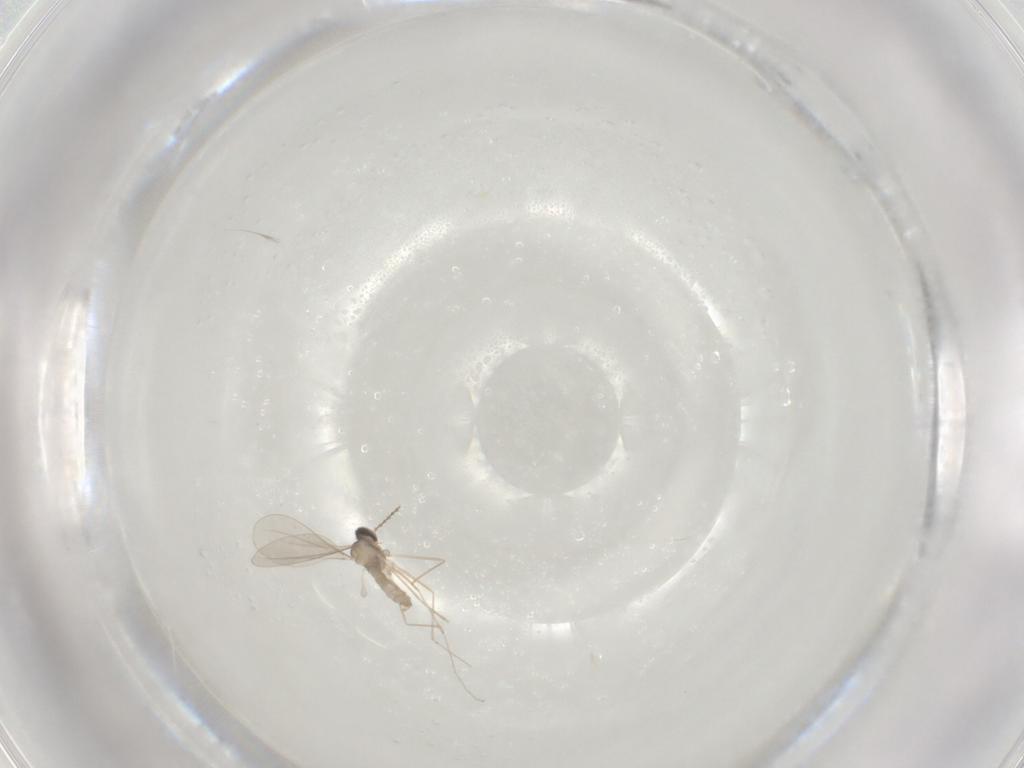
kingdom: Animalia
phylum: Arthropoda
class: Insecta
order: Diptera
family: Cecidomyiidae
